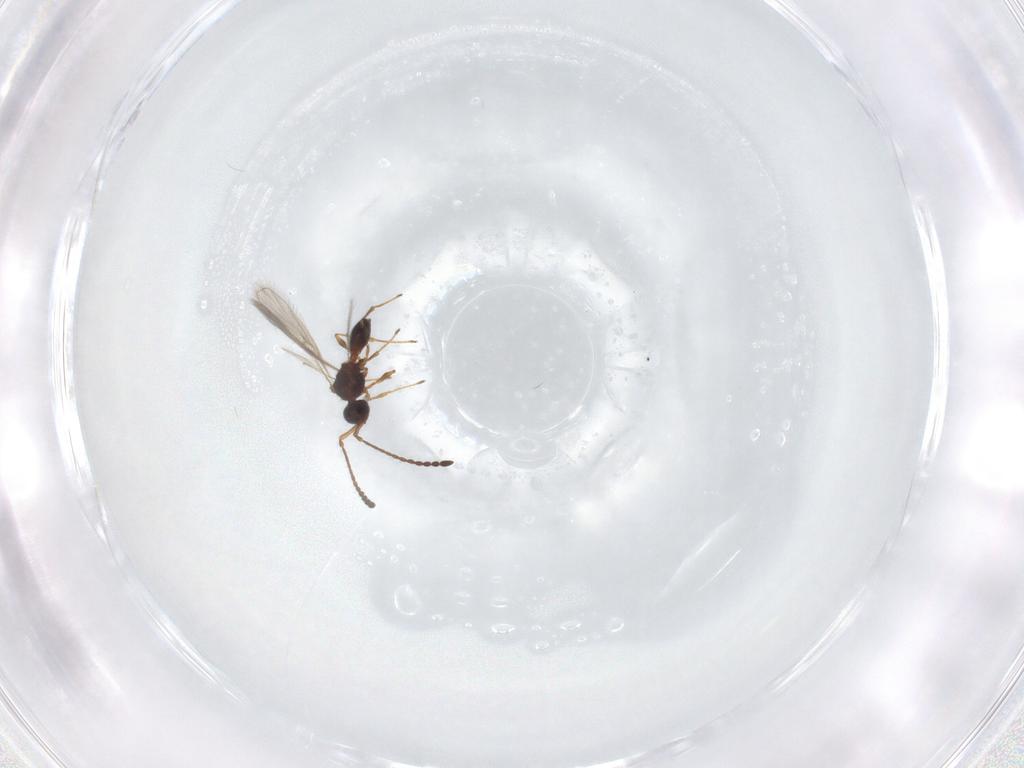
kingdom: Animalia
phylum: Arthropoda
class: Insecta
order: Hymenoptera
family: Diapriidae
